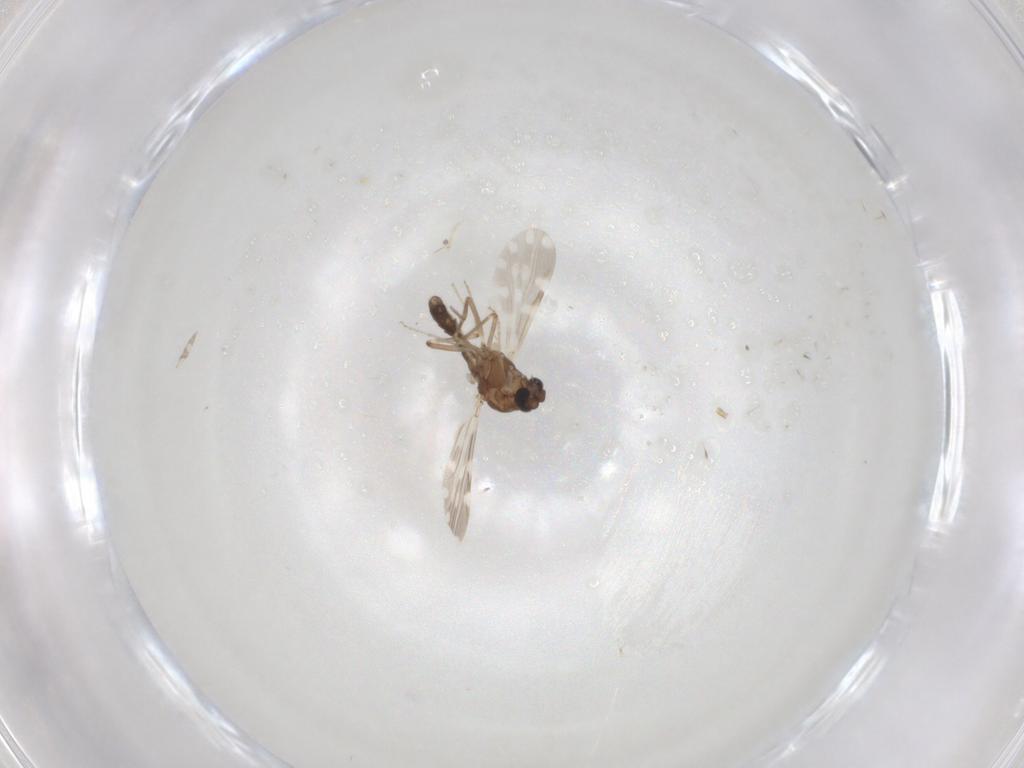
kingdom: Animalia
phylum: Arthropoda
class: Insecta
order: Diptera
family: Ceratopogonidae
